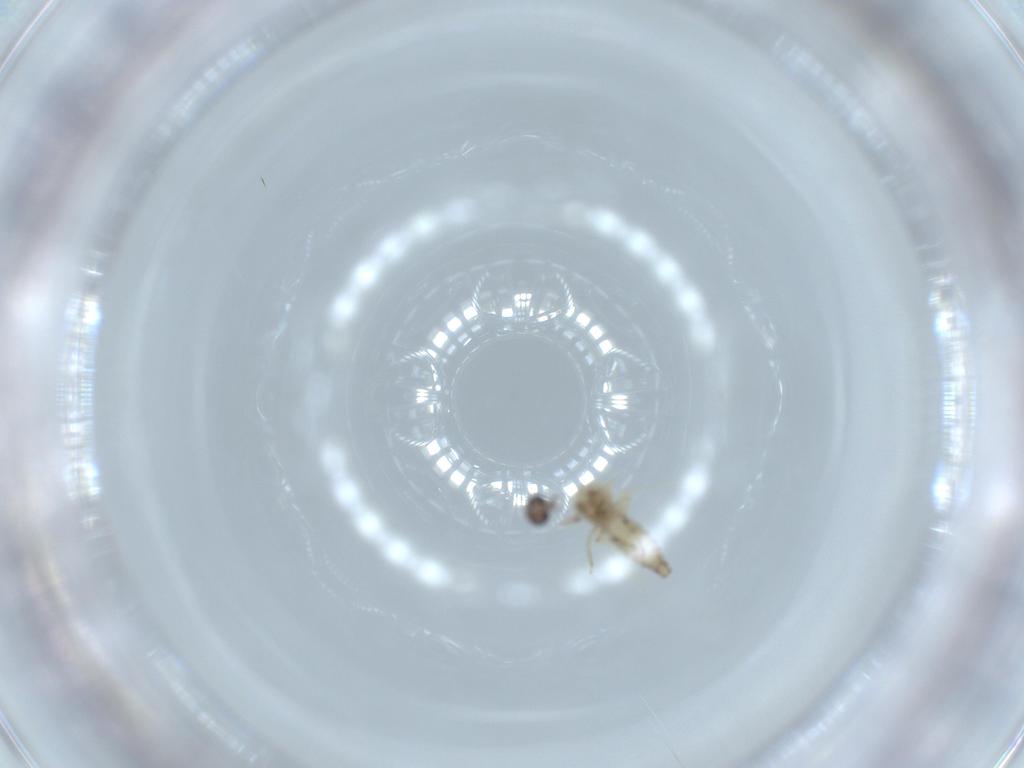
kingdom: Animalia
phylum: Arthropoda
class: Insecta
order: Diptera
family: Ceratopogonidae
